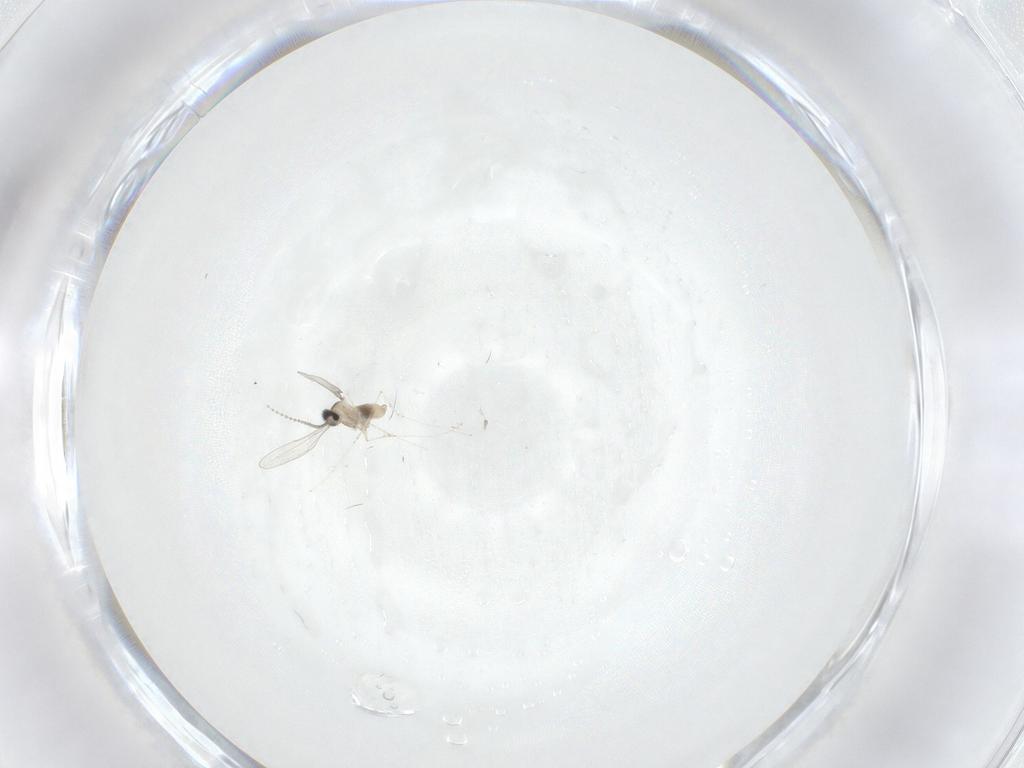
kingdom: Animalia
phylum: Arthropoda
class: Insecta
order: Diptera
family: Cecidomyiidae
